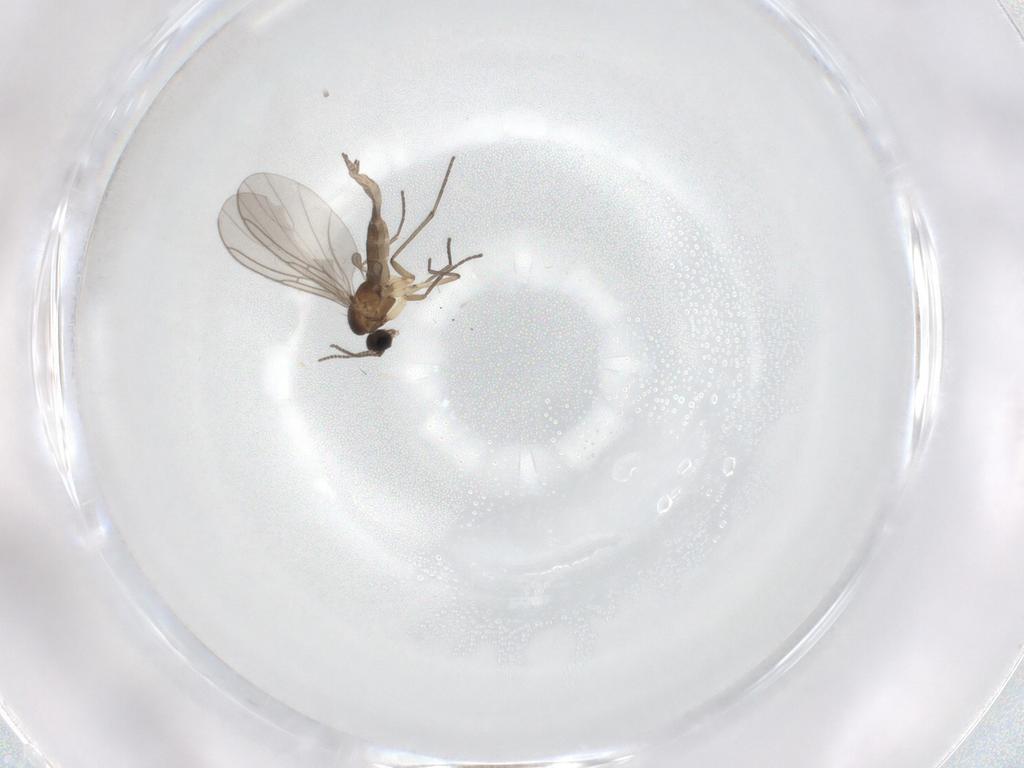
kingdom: Animalia
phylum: Arthropoda
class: Insecta
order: Diptera
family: Sciaridae
